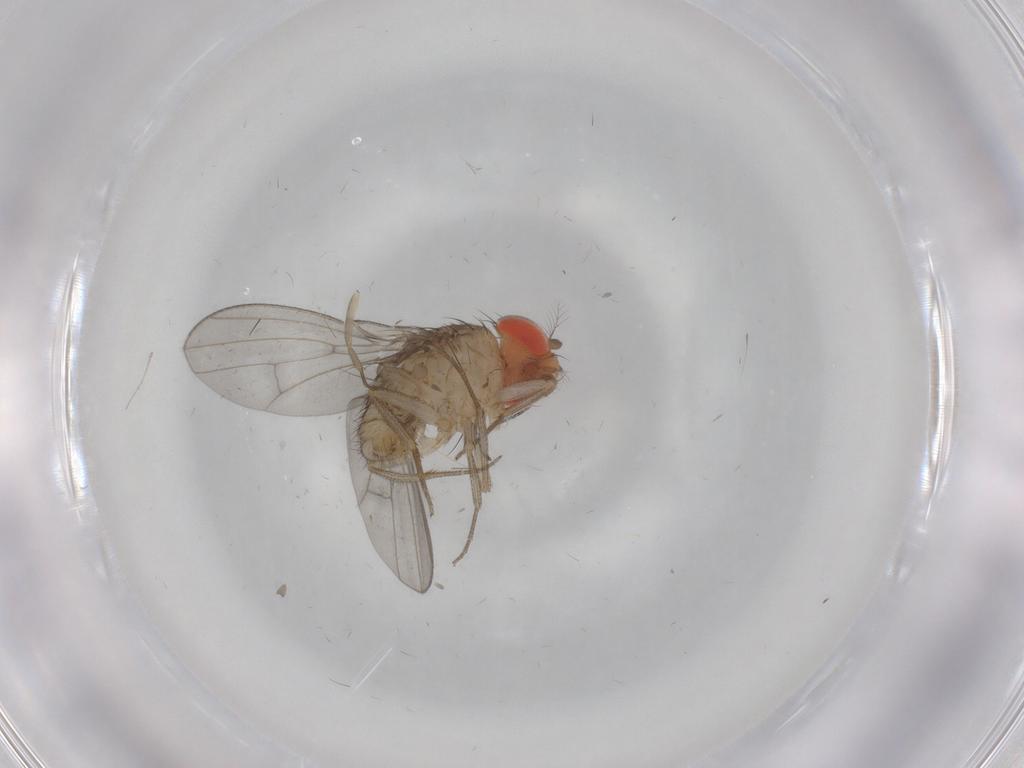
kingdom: Animalia
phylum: Arthropoda
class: Insecta
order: Diptera
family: Drosophilidae
